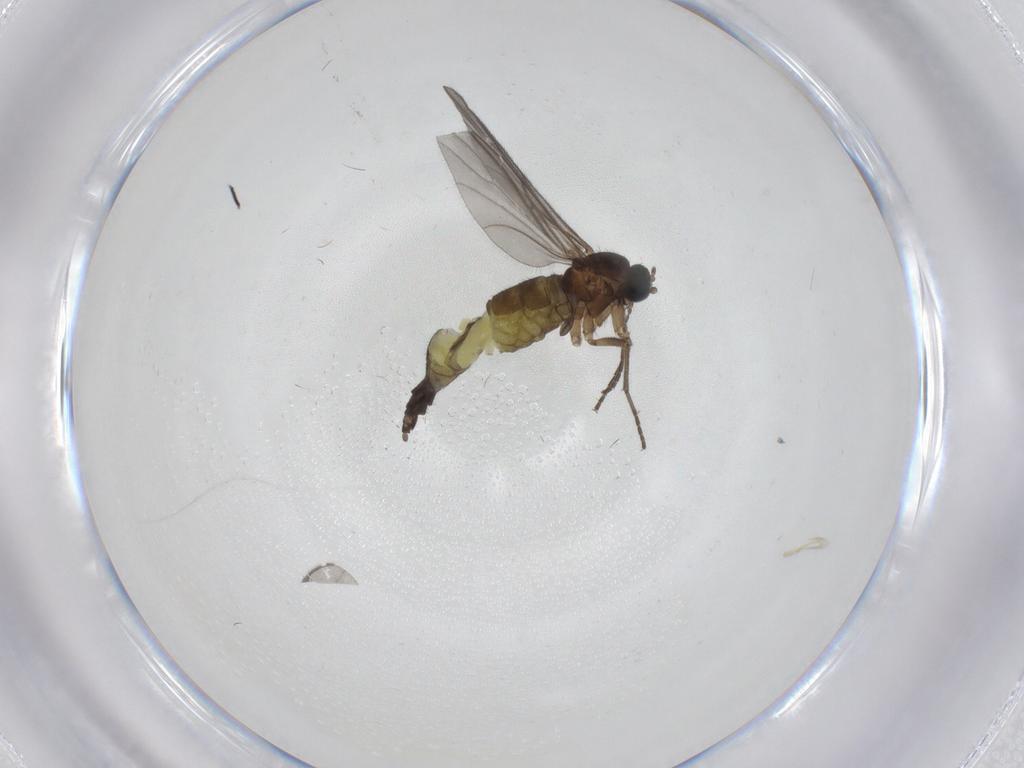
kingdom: Animalia
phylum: Arthropoda
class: Insecta
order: Diptera
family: Sciaridae
